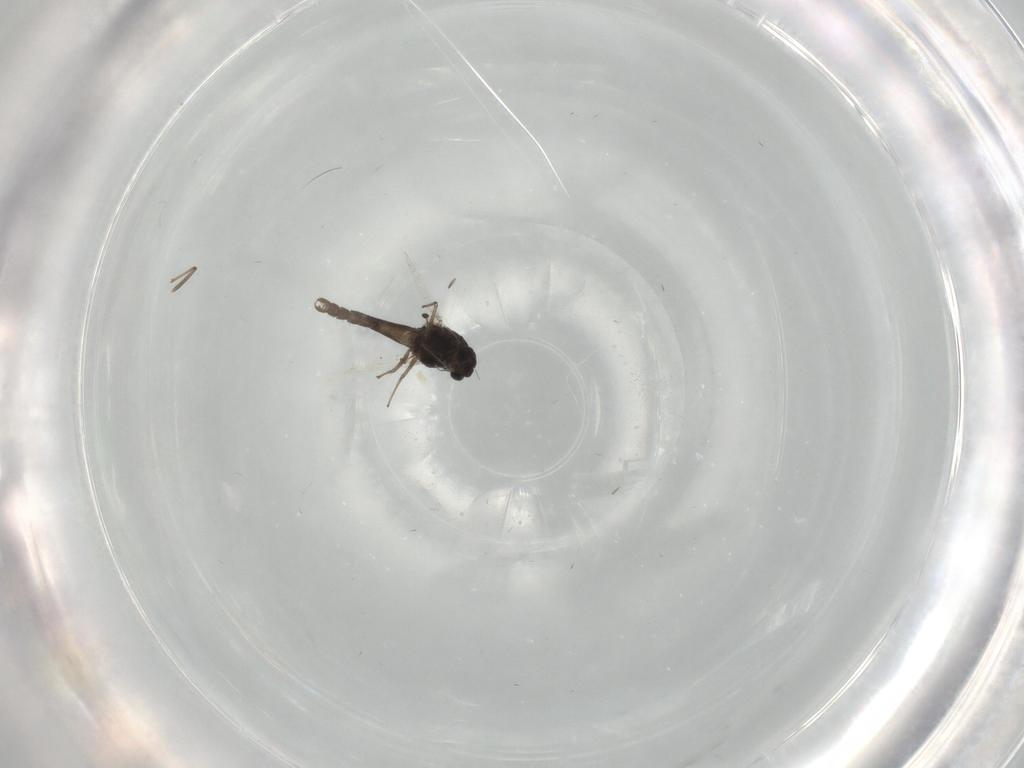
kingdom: Animalia
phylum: Arthropoda
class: Insecta
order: Diptera
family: Chironomidae
